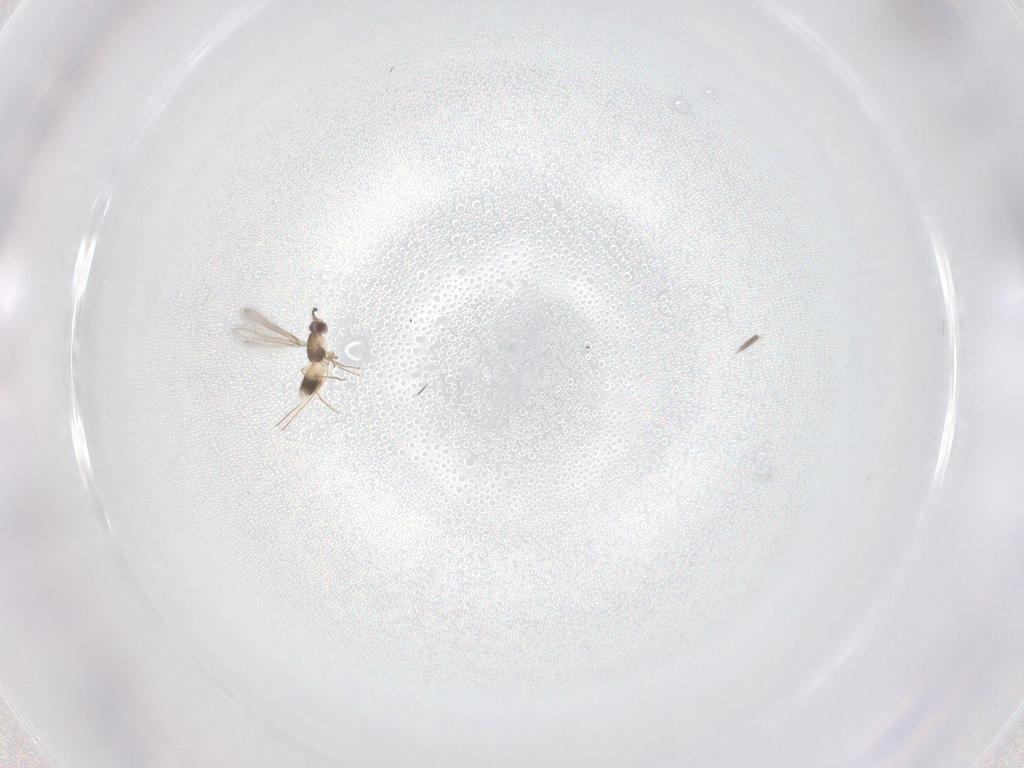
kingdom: Animalia
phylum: Arthropoda
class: Insecta
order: Hymenoptera
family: Mymaridae
